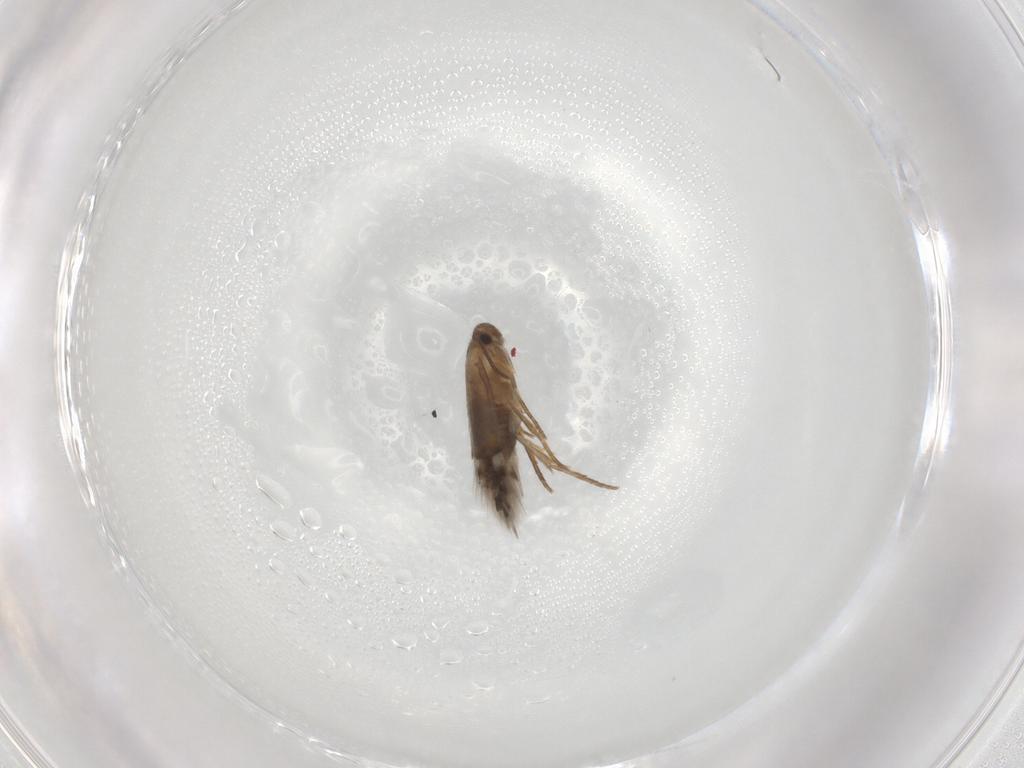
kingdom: Animalia
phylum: Arthropoda
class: Insecta
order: Lepidoptera
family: Heliozelidae
